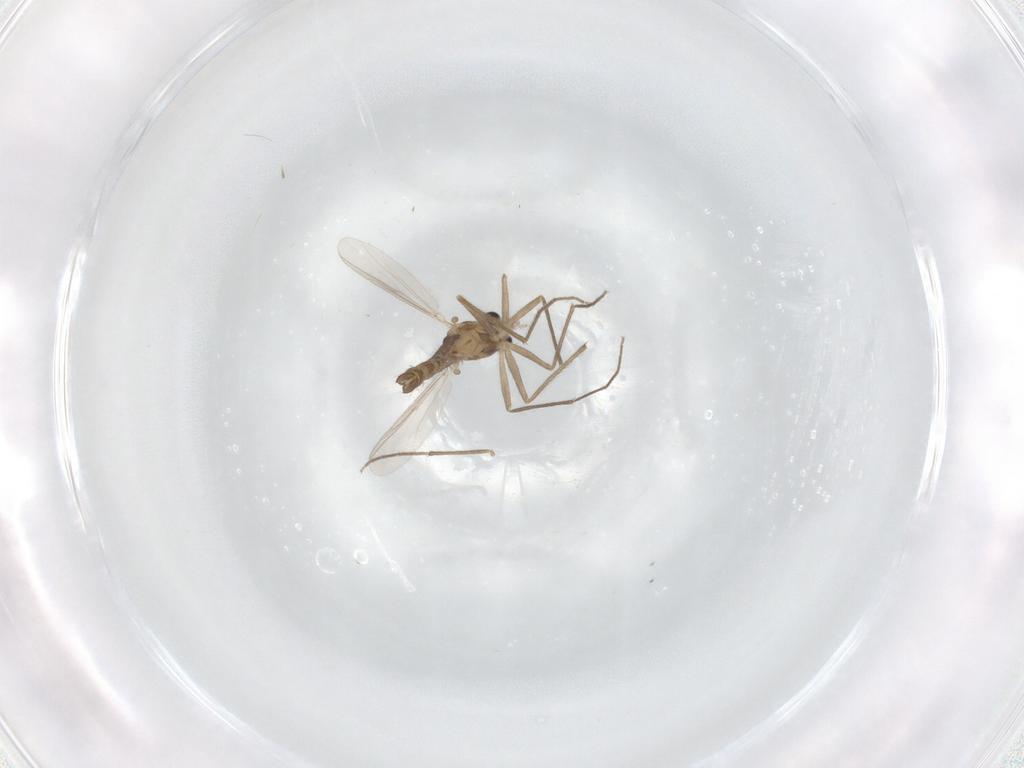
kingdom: Animalia
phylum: Arthropoda
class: Insecta
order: Diptera
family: Chironomidae
